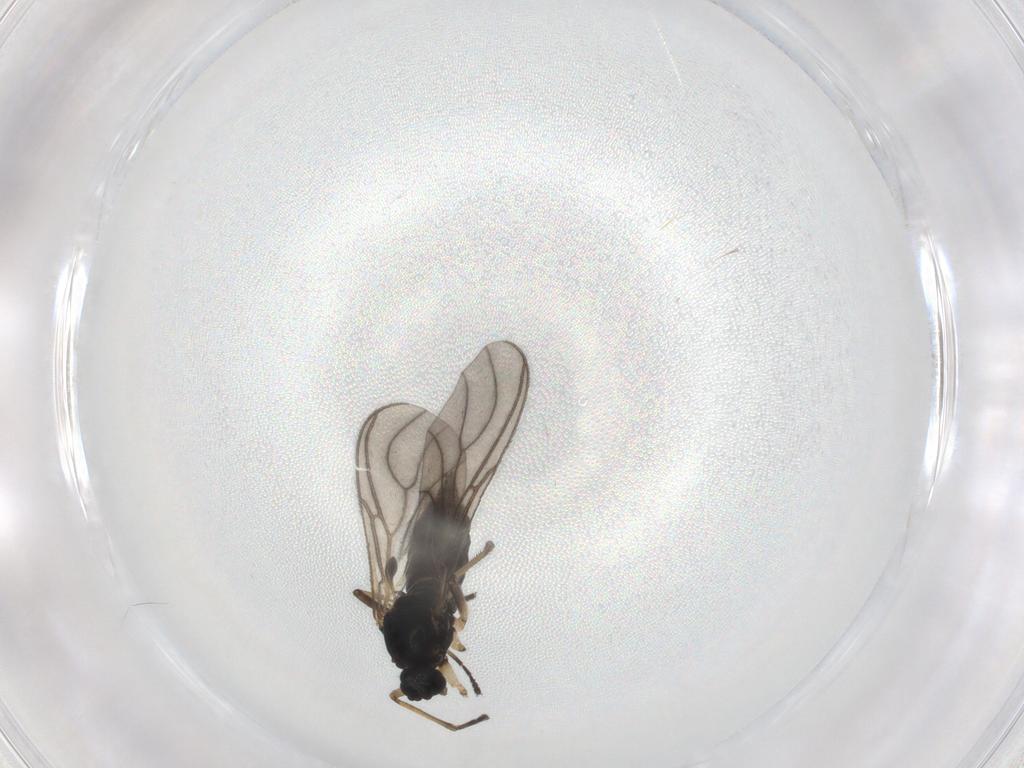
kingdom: Animalia
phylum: Arthropoda
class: Insecta
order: Diptera
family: Sciaridae
